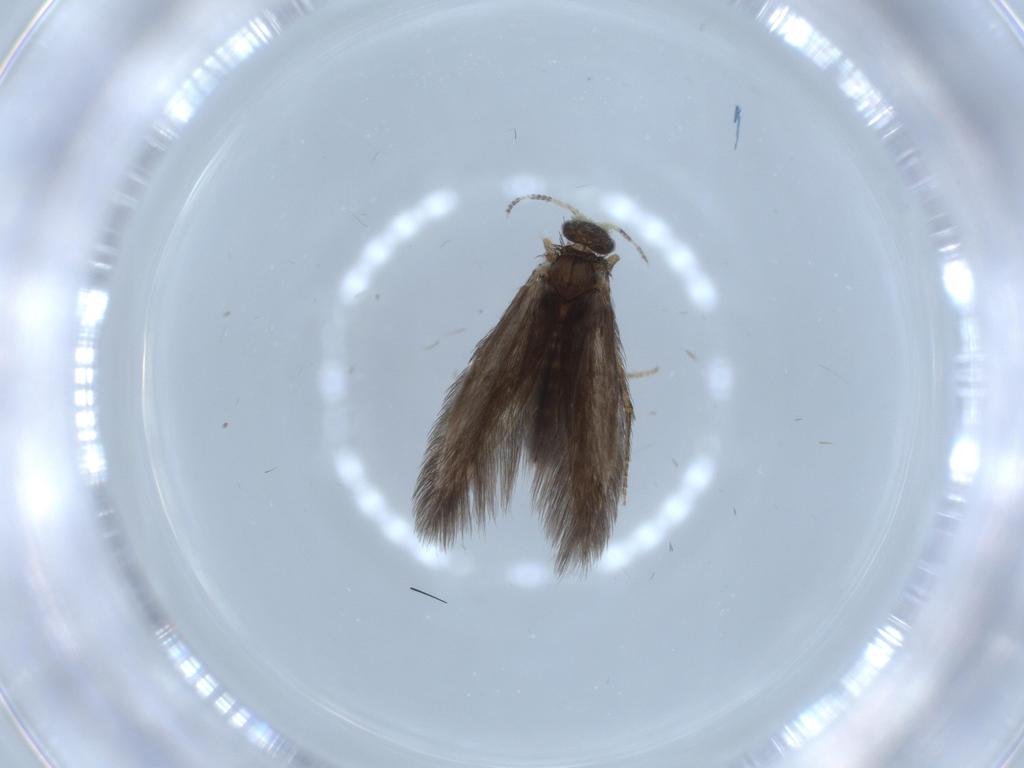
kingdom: Animalia
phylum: Arthropoda
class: Insecta
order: Trichoptera
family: Hydroptilidae
